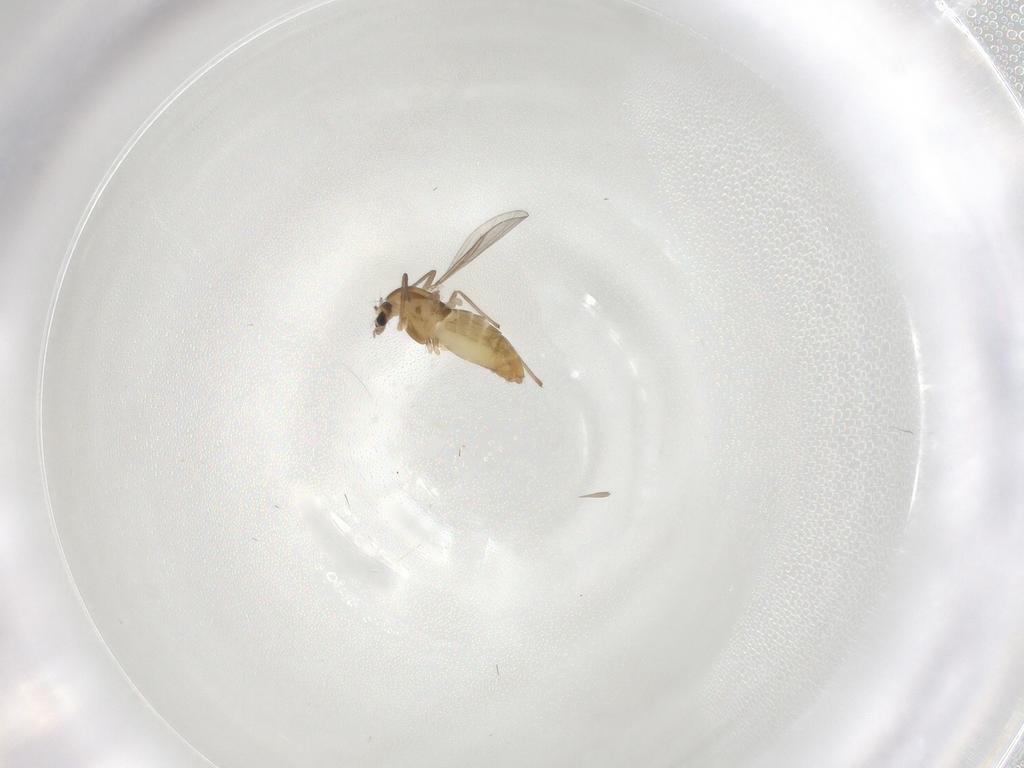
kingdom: Animalia
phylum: Arthropoda
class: Insecta
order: Diptera
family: Chironomidae
